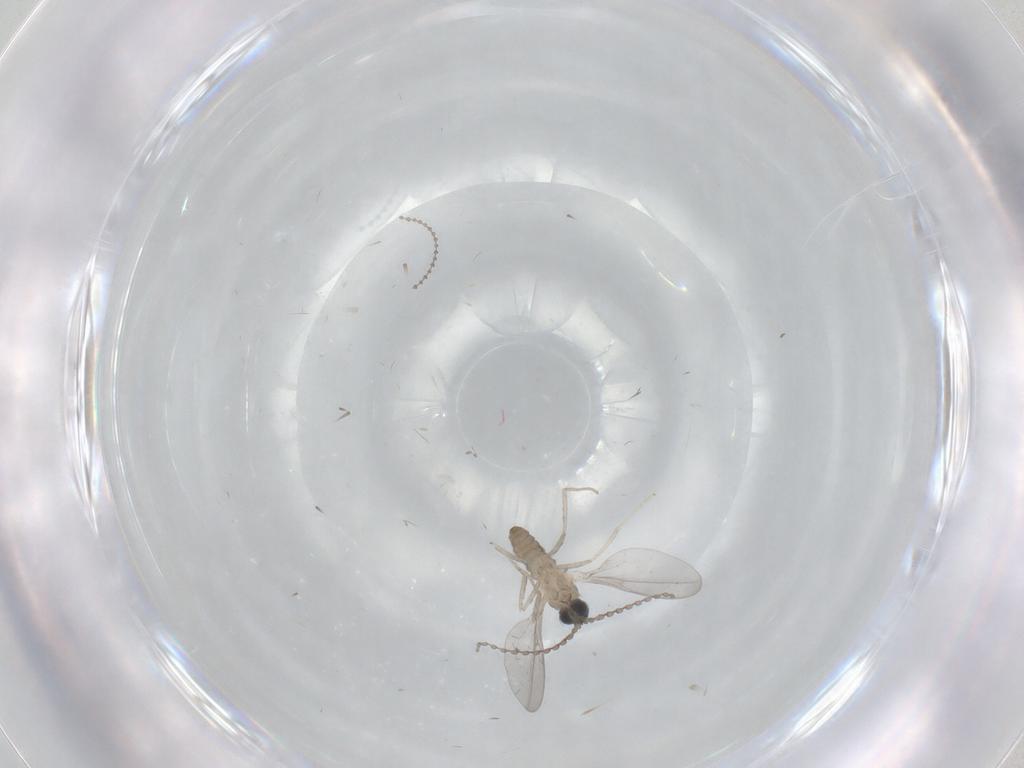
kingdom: Animalia
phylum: Arthropoda
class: Insecta
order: Diptera
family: Cecidomyiidae
